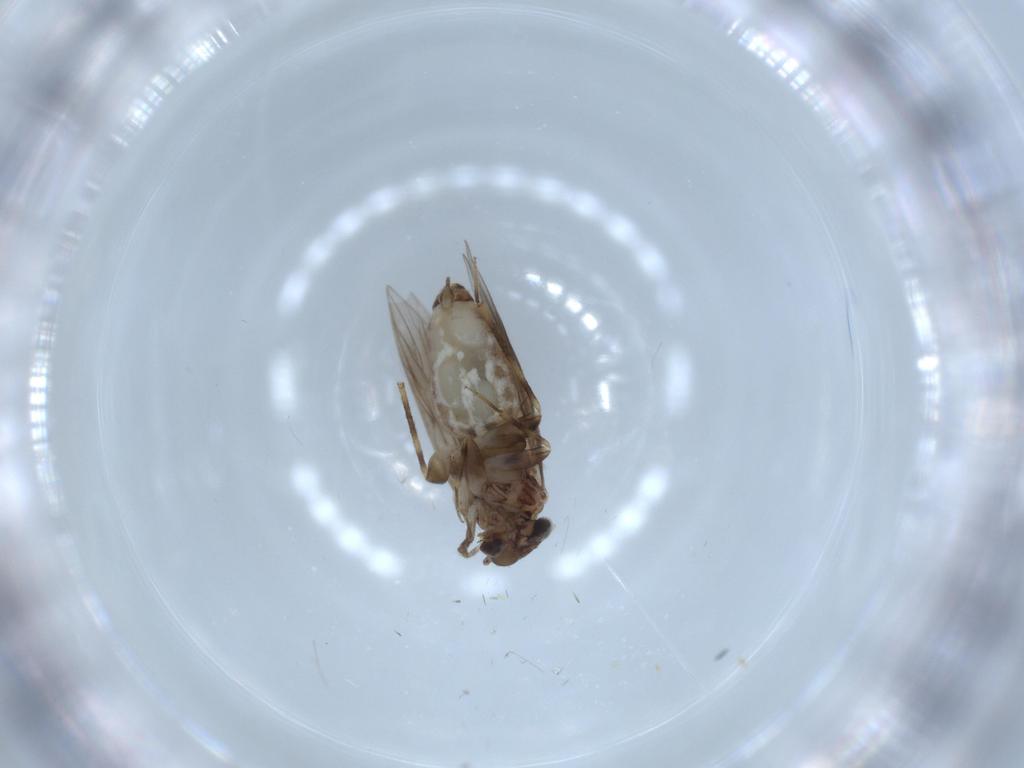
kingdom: Animalia
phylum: Arthropoda
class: Insecta
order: Psocodea
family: Lepidopsocidae
